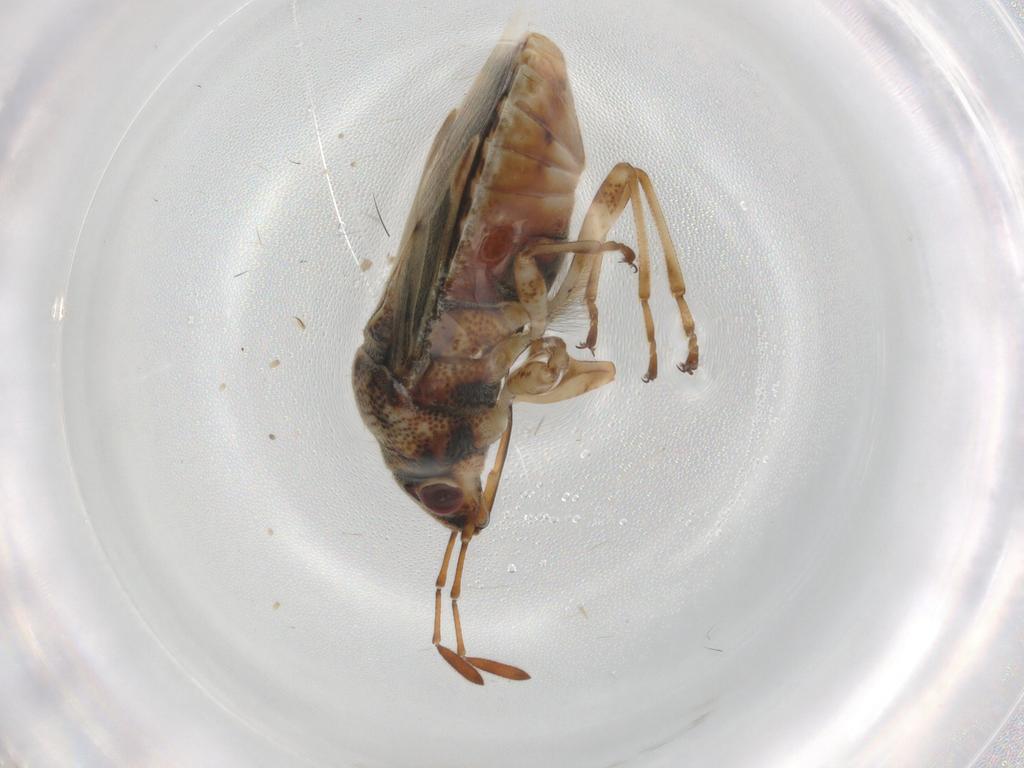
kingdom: Animalia
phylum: Arthropoda
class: Insecta
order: Hemiptera
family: Lygaeidae
